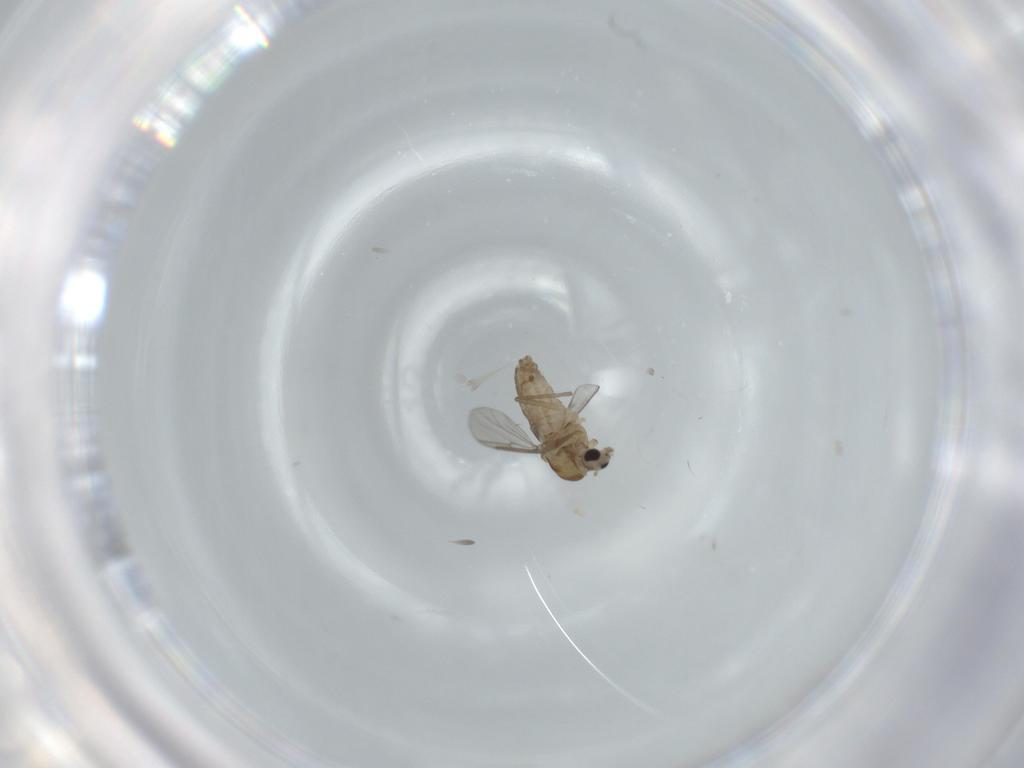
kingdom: Animalia
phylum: Arthropoda
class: Insecta
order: Diptera
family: Chironomidae
